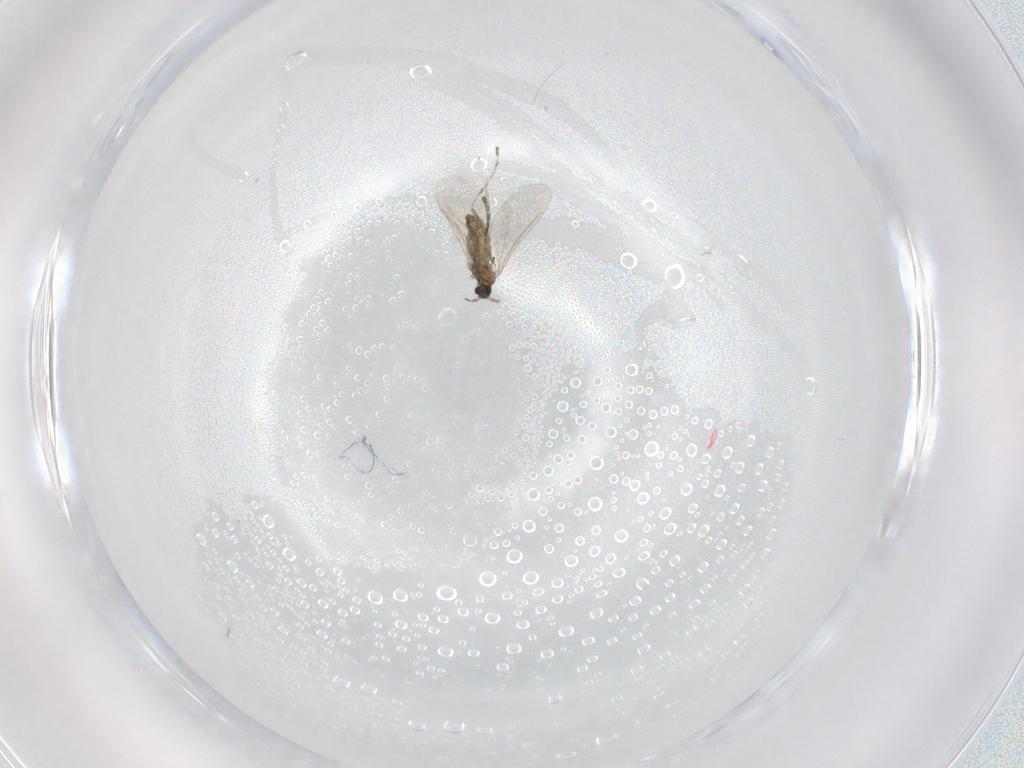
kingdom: Animalia
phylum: Arthropoda
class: Insecta
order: Diptera
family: Cecidomyiidae
